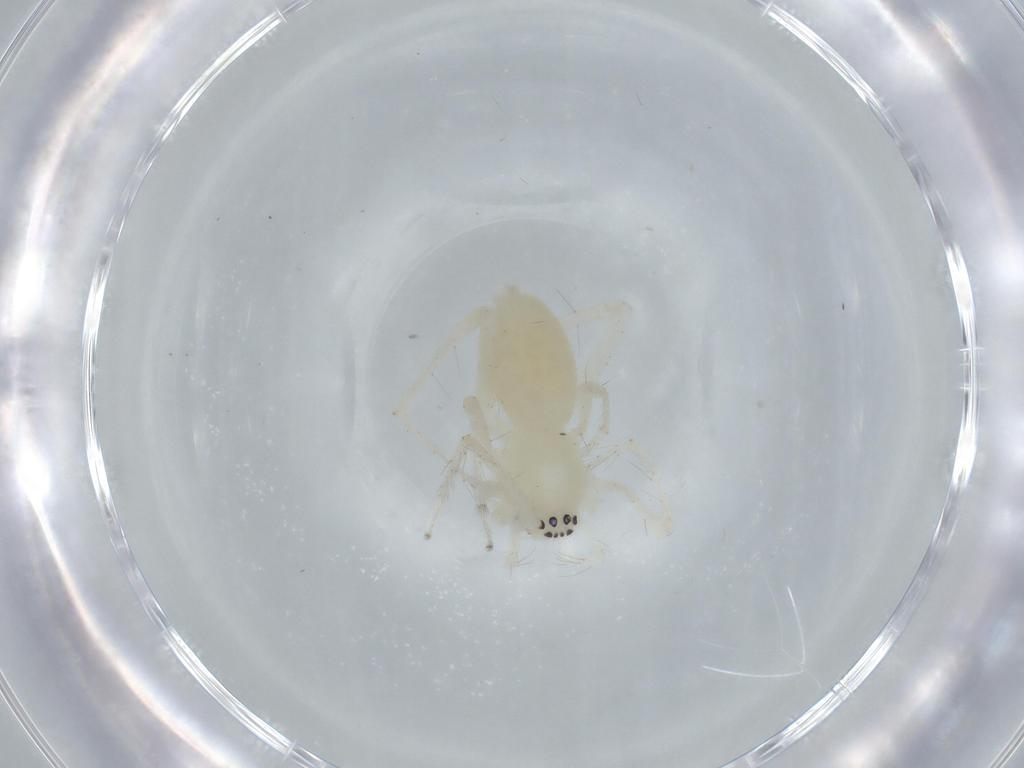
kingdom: Animalia
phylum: Arthropoda
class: Arachnida
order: Araneae
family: Anyphaenidae
